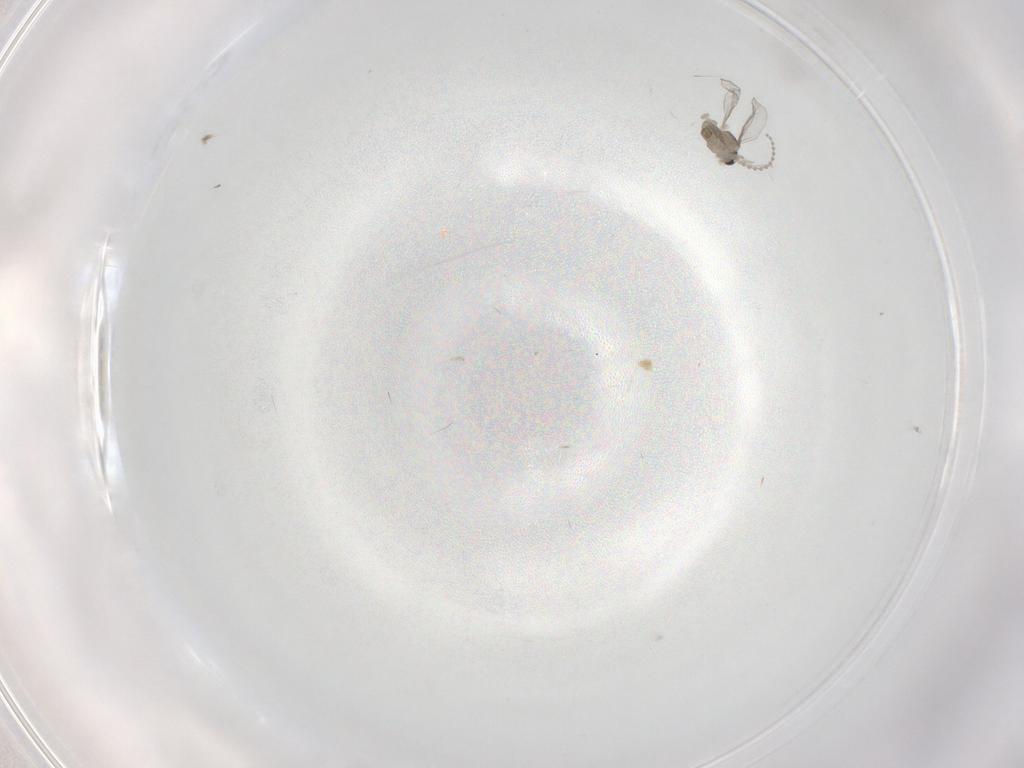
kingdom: Animalia
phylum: Arthropoda
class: Insecta
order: Diptera
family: Cecidomyiidae
